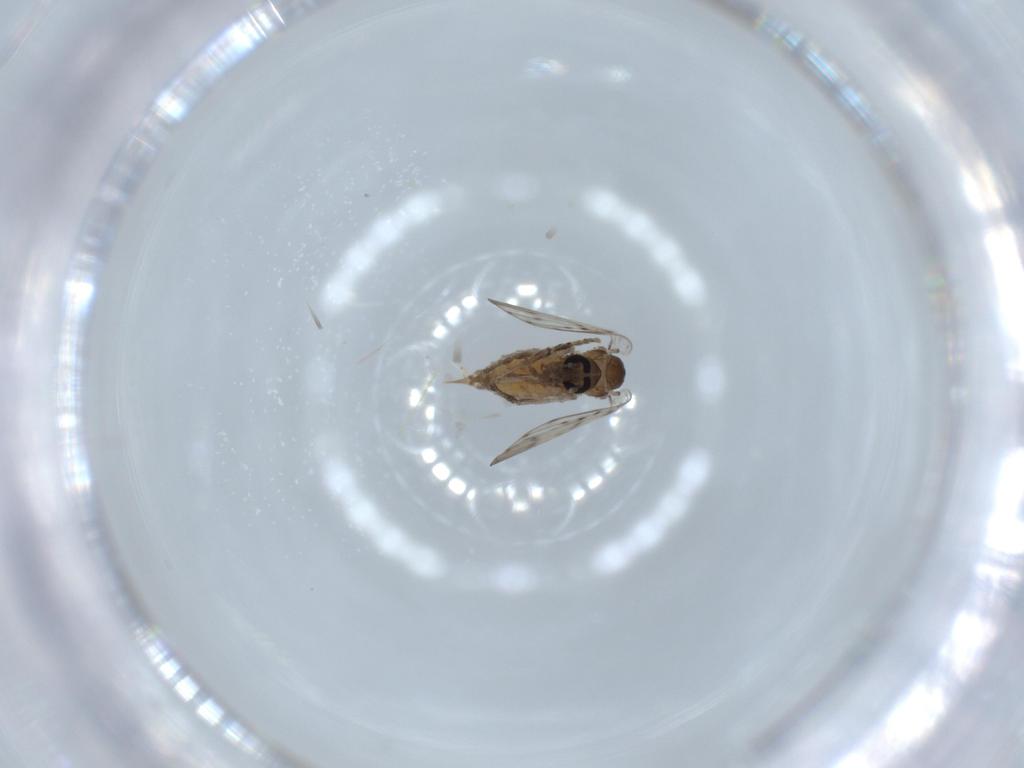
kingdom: Animalia
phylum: Arthropoda
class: Insecta
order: Diptera
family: Psychodidae
